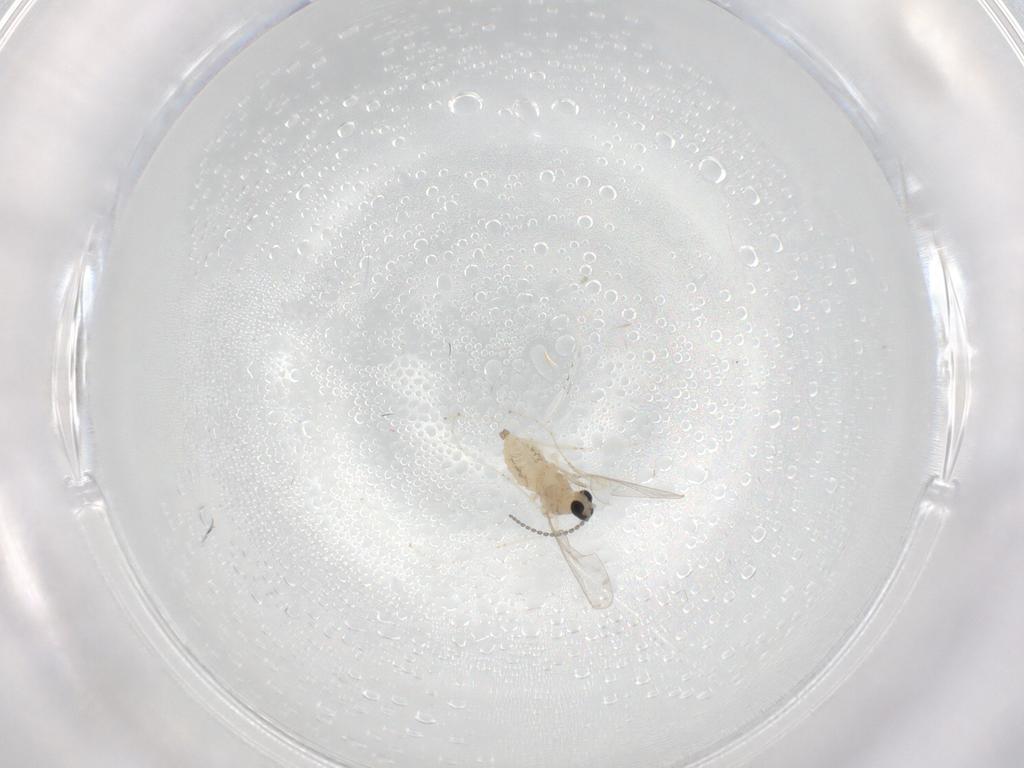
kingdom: Animalia
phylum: Arthropoda
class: Insecta
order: Diptera
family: Cecidomyiidae
